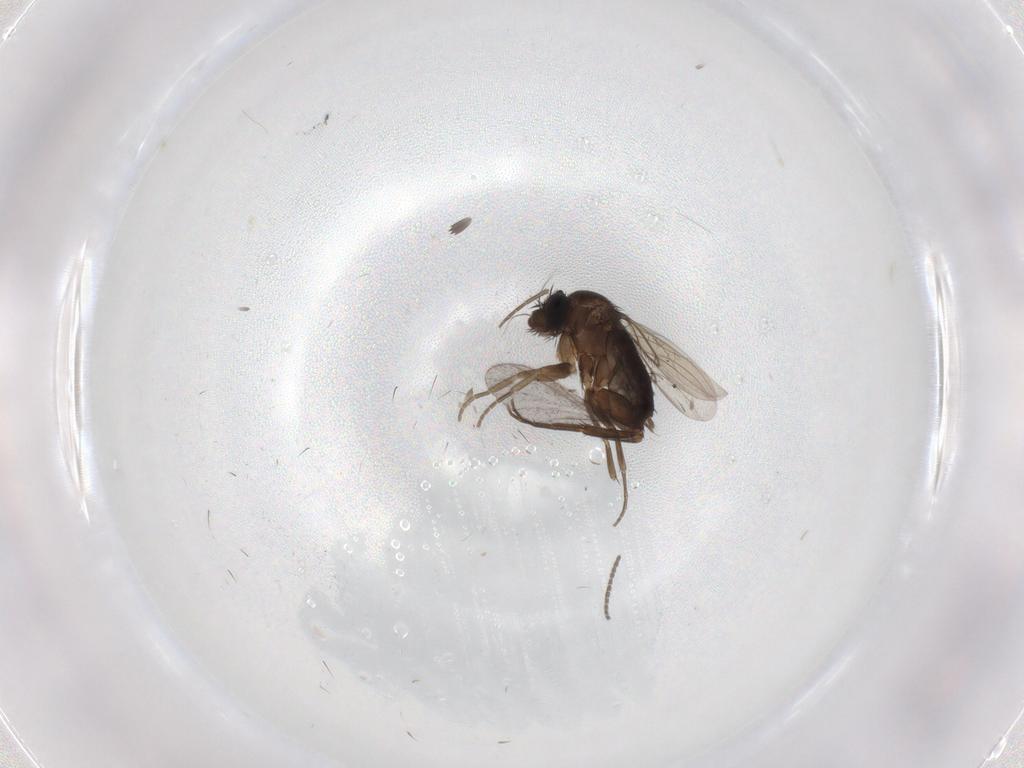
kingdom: Animalia
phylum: Arthropoda
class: Insecta
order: Diptera
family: Phoridae
